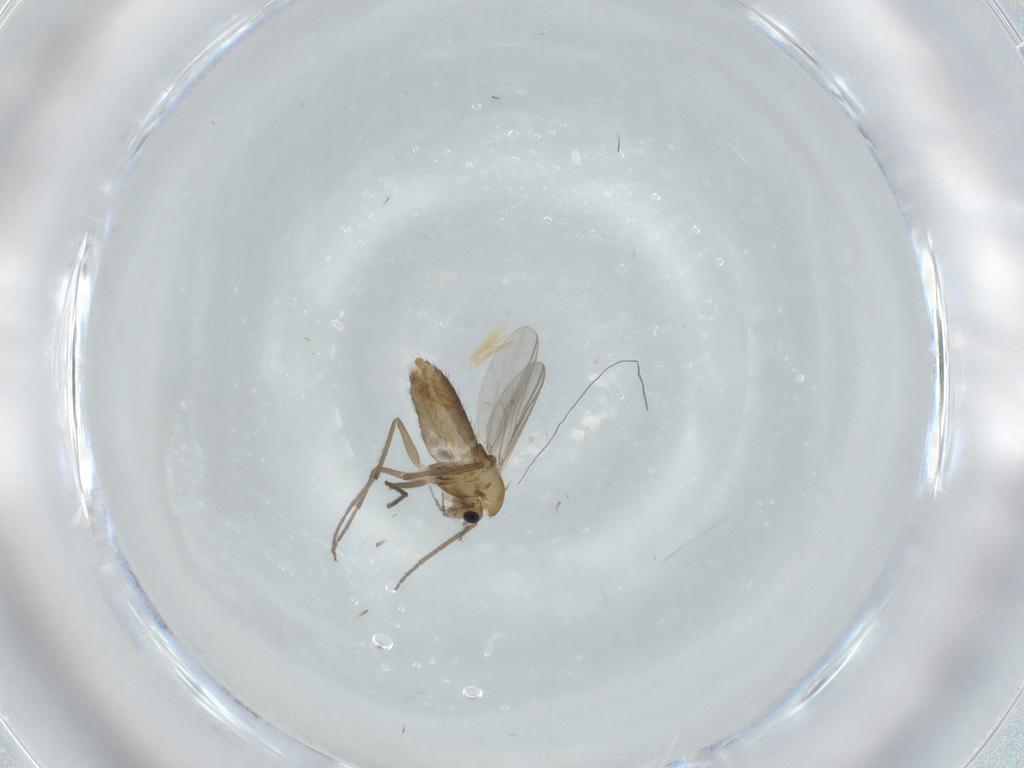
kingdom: Animalia
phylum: Arthropoda
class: Insecta
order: Diptera
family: Chironomidae
